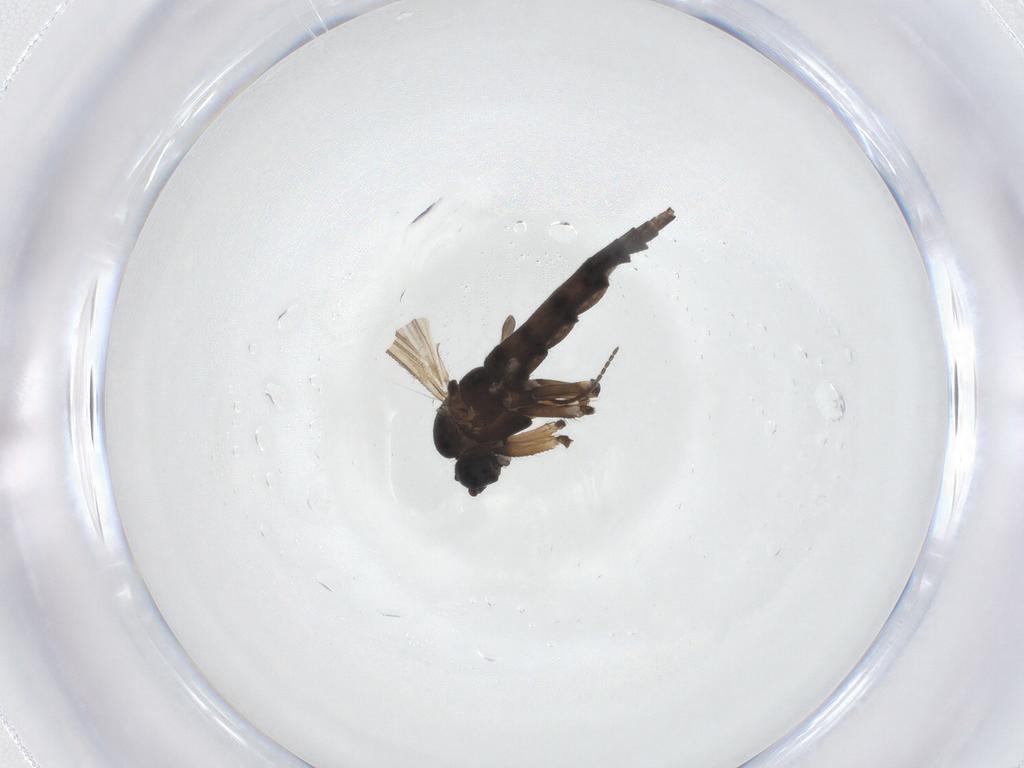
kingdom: Animalia
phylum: Arthropoda
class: Insecta
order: Diptera
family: Sciaridae
